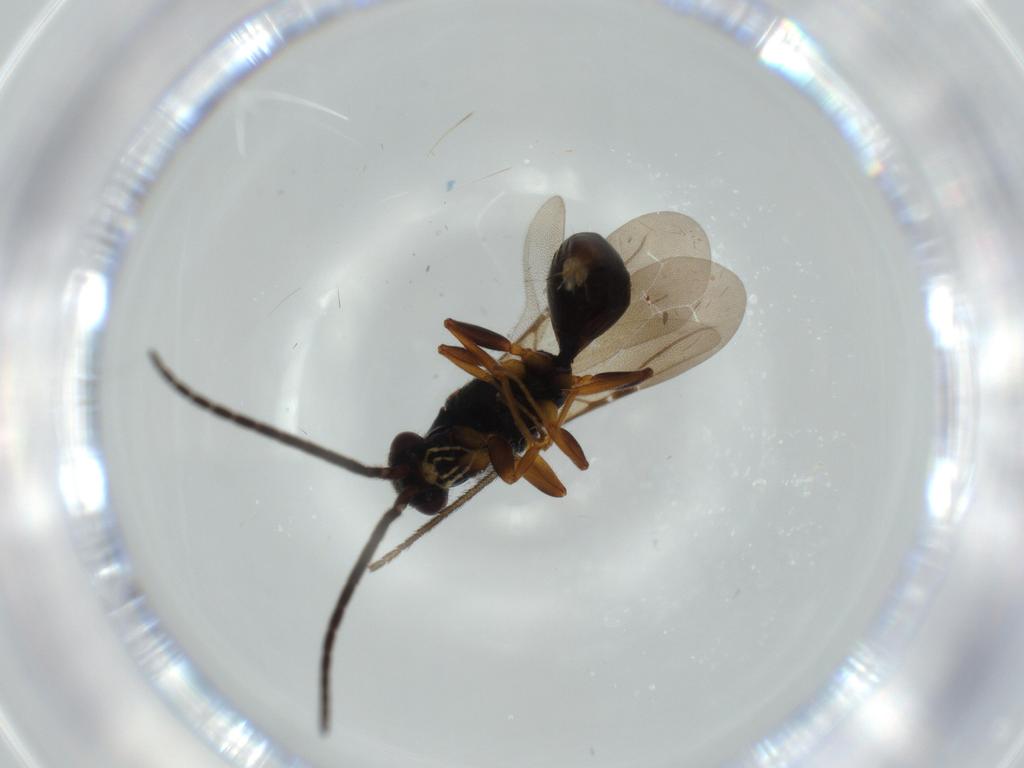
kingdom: Animalia
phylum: Arthropoda
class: Insecta
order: Hymenoptera
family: Bethylidae
